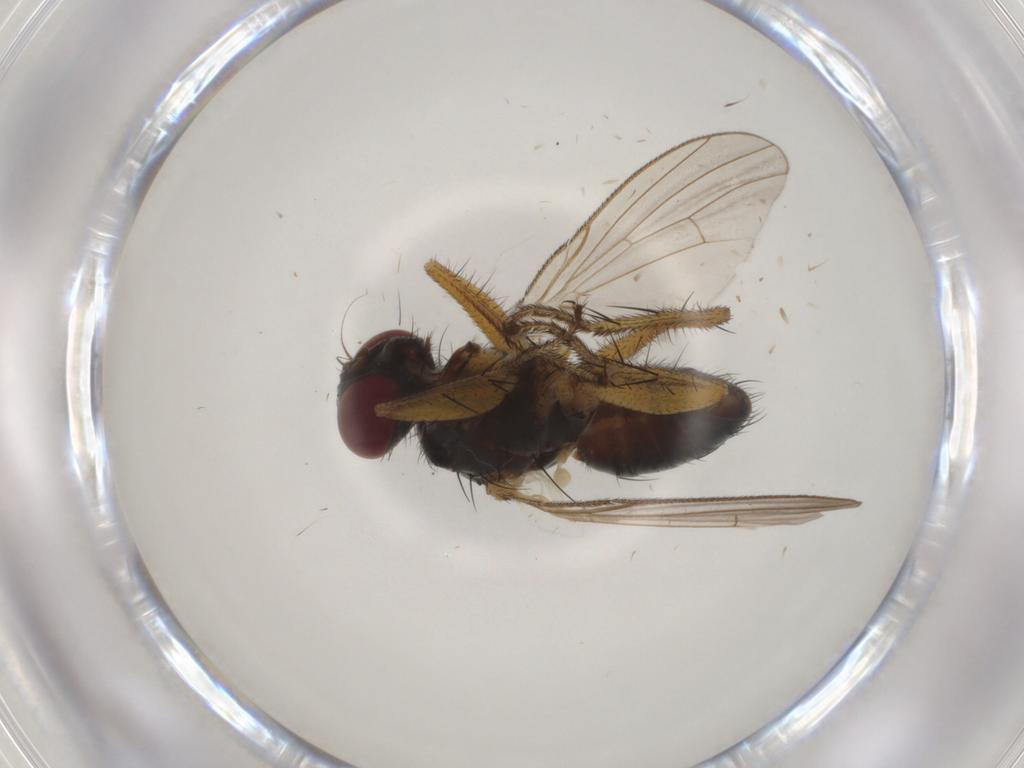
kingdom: Animalia
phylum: Arthropoda
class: Insecta
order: Diptera
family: Muscidae
